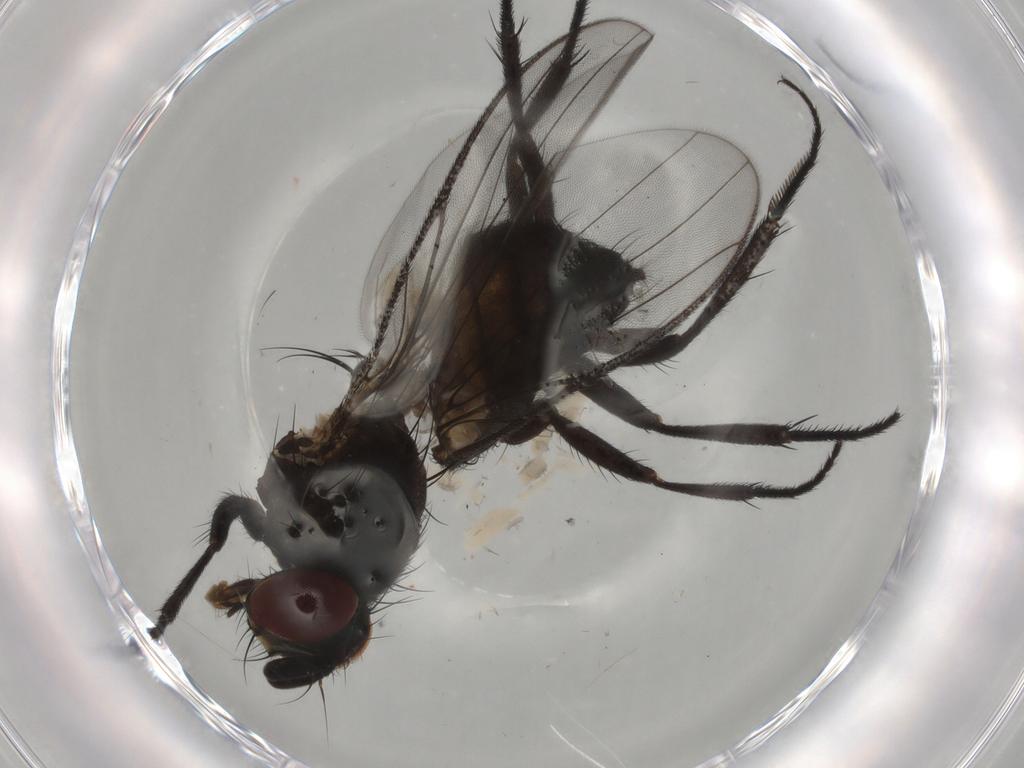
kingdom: Animalia
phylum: Arthropoda
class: Insecta
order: Diptera
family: Fannia
